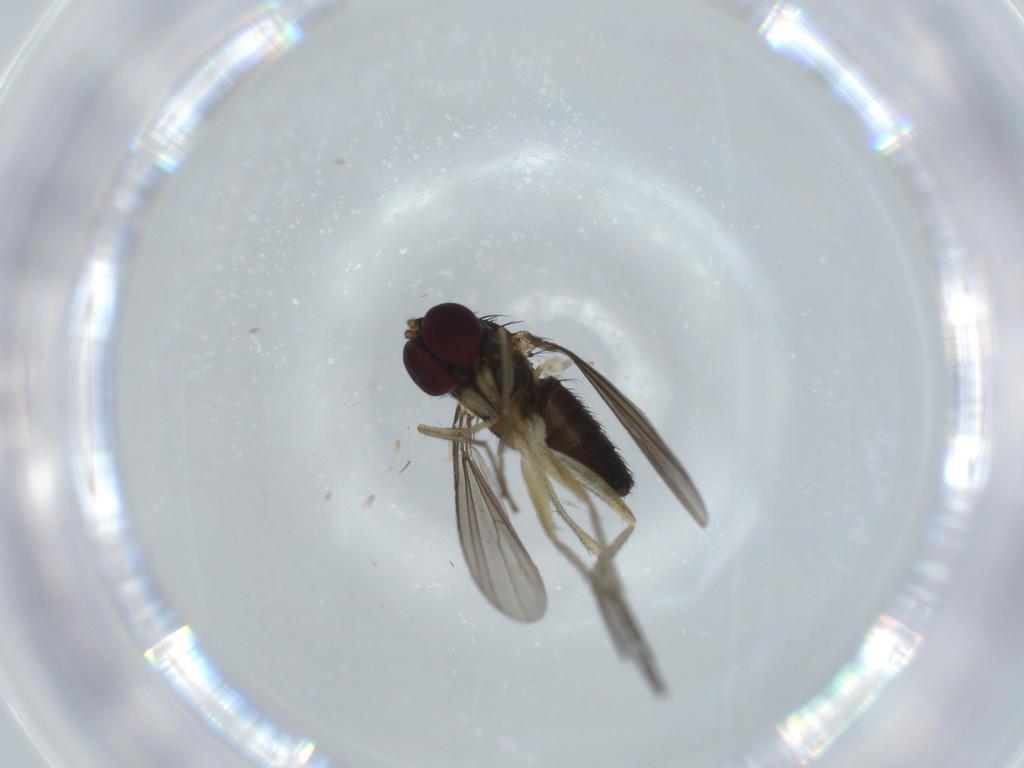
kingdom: Animalia
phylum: Arthropoda
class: Insecta
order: Diptera
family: Dolichopodidae
